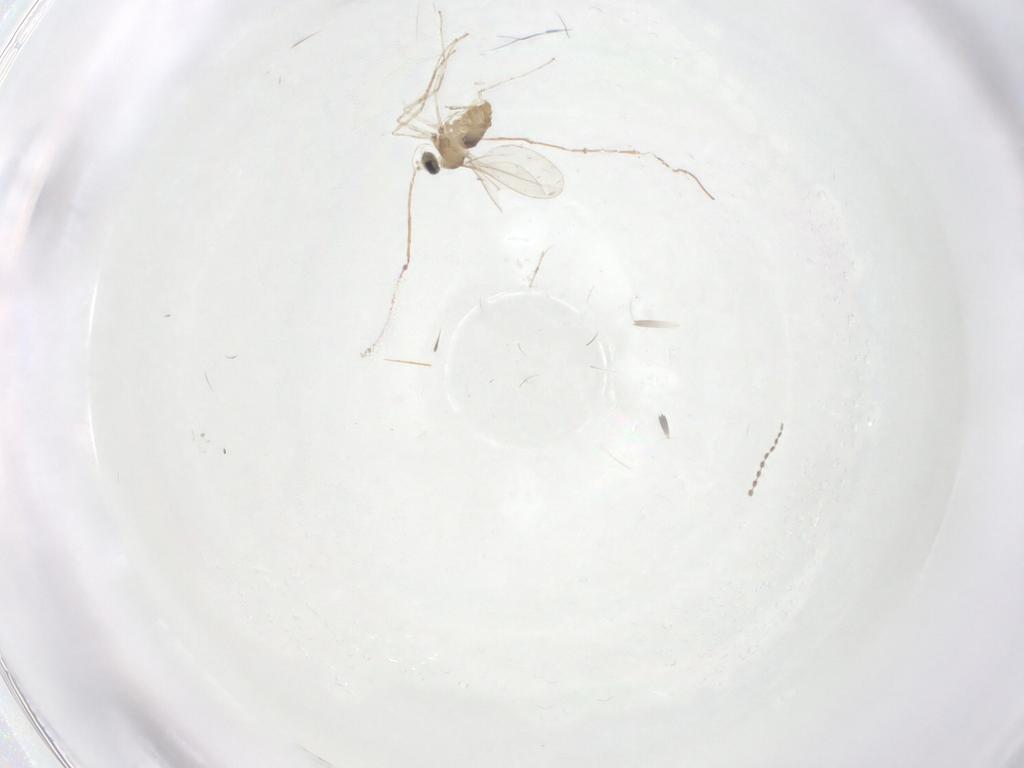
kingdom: Animalia
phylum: Arthropoda
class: Insecta
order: Diptera
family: Cecidomyiidae
